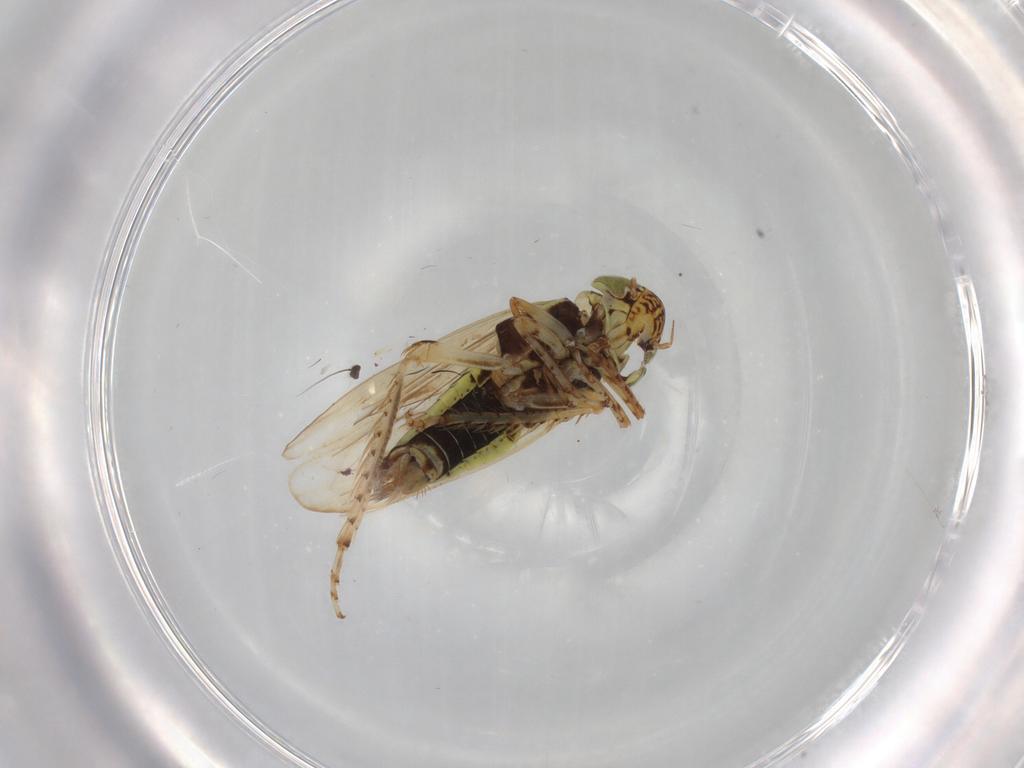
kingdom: Animalia
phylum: Arthropoda
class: Insecta
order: Hemiptera
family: Cicadellidae
